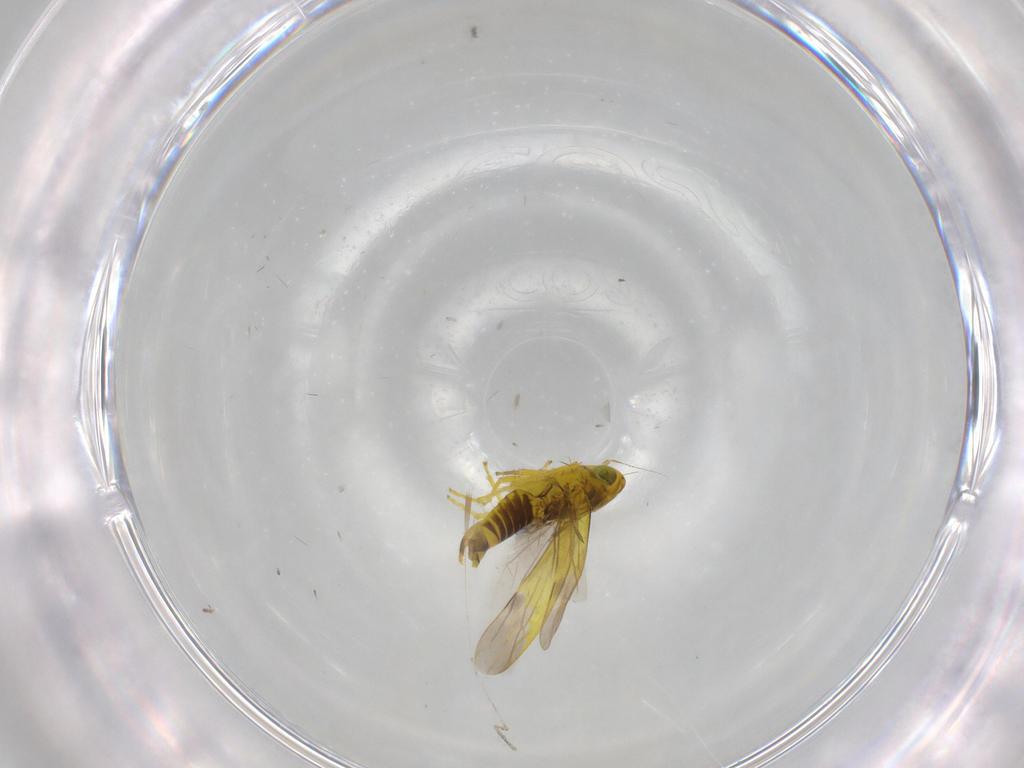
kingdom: Animalia
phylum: Arthropoda
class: Insecta
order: Hemiptera
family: Cicadellidae
